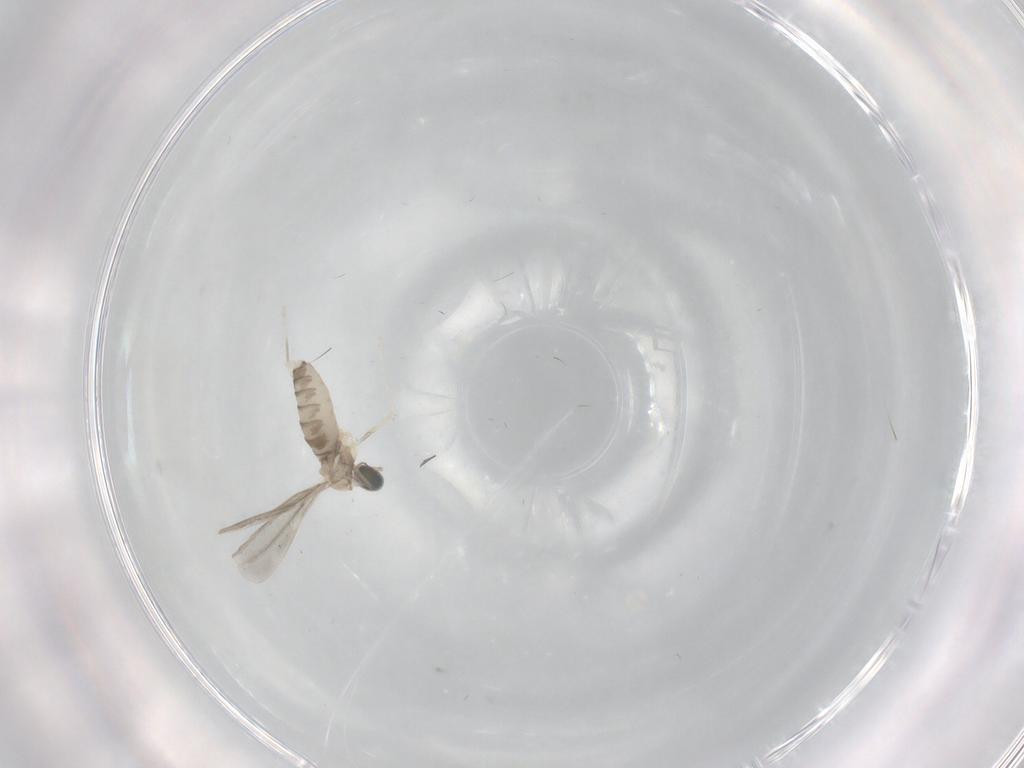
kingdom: Animalia
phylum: Arthropoda
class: Insecta
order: Diptera
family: Cecidomyiidae
